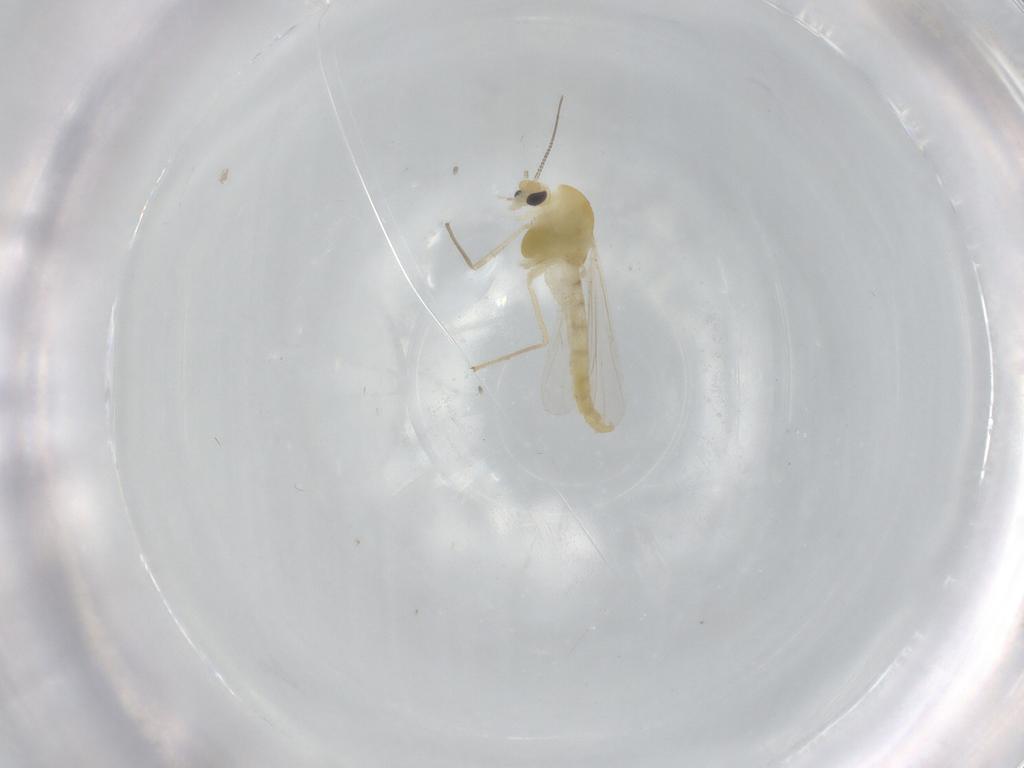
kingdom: Animalia
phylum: Arthropoda
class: Insecta
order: Diptera
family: Chironomidae
